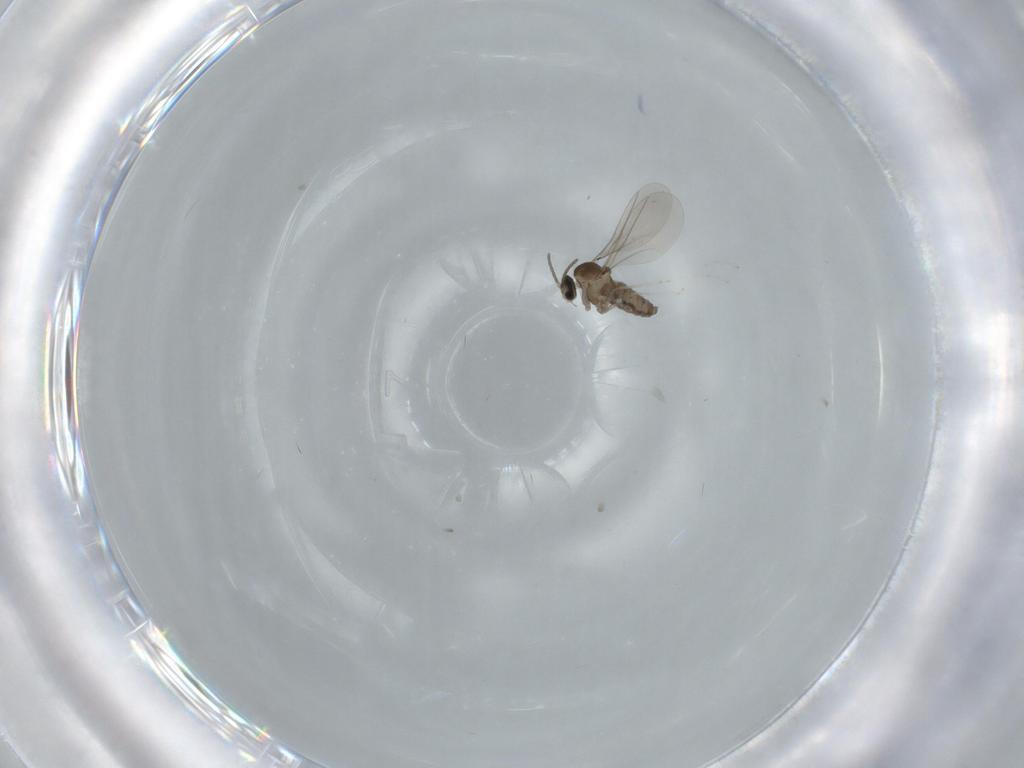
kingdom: Animalia
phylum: Arthropoda
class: Insecta
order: Diptera
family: Cecidomyiidae
